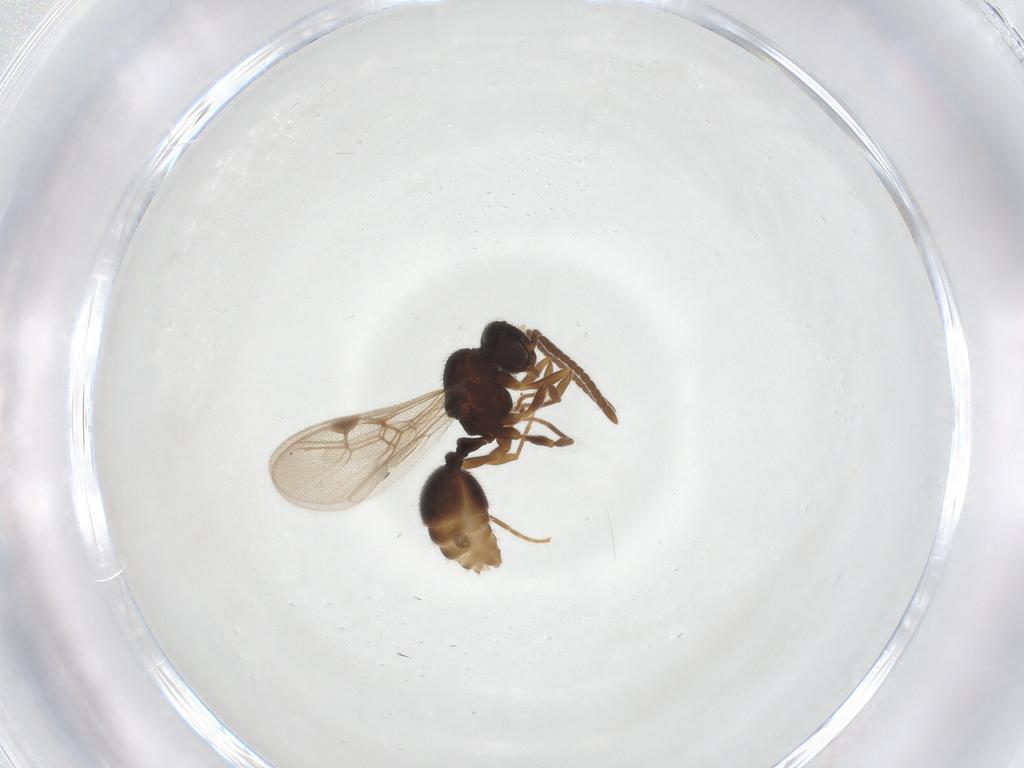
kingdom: Animalia
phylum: Arthropoda
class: Insecta
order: Hymenoptera
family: Formicidae
